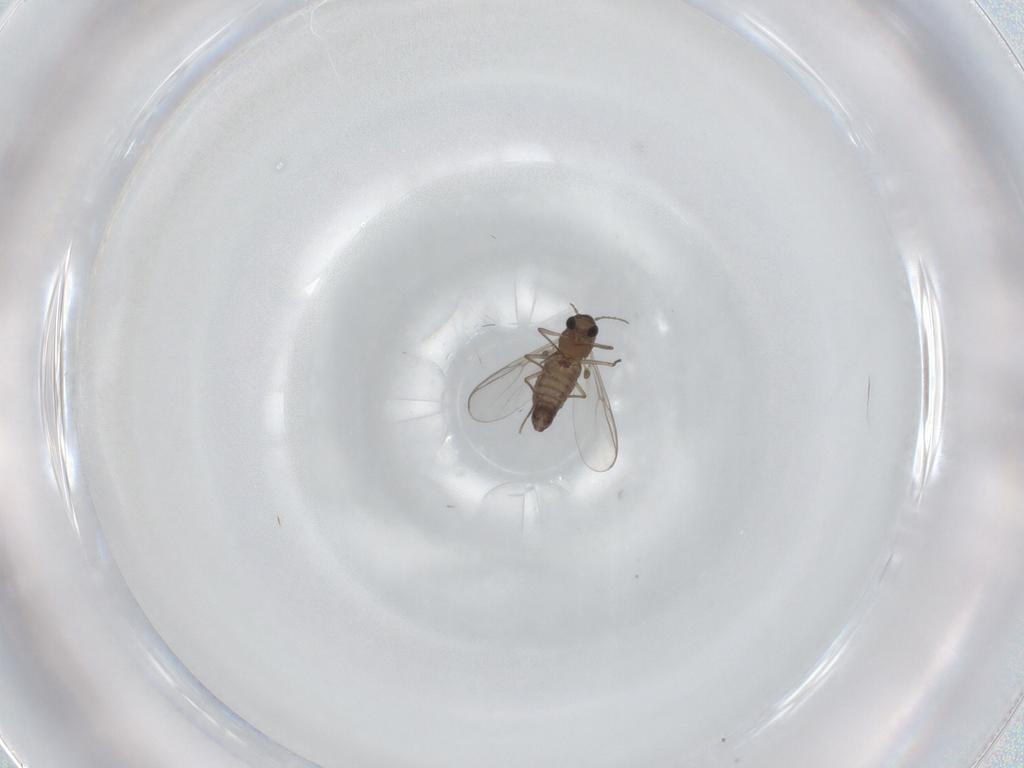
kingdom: Animalia
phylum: Arthropoda
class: Insecta
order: Diptera
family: Chironomidae
